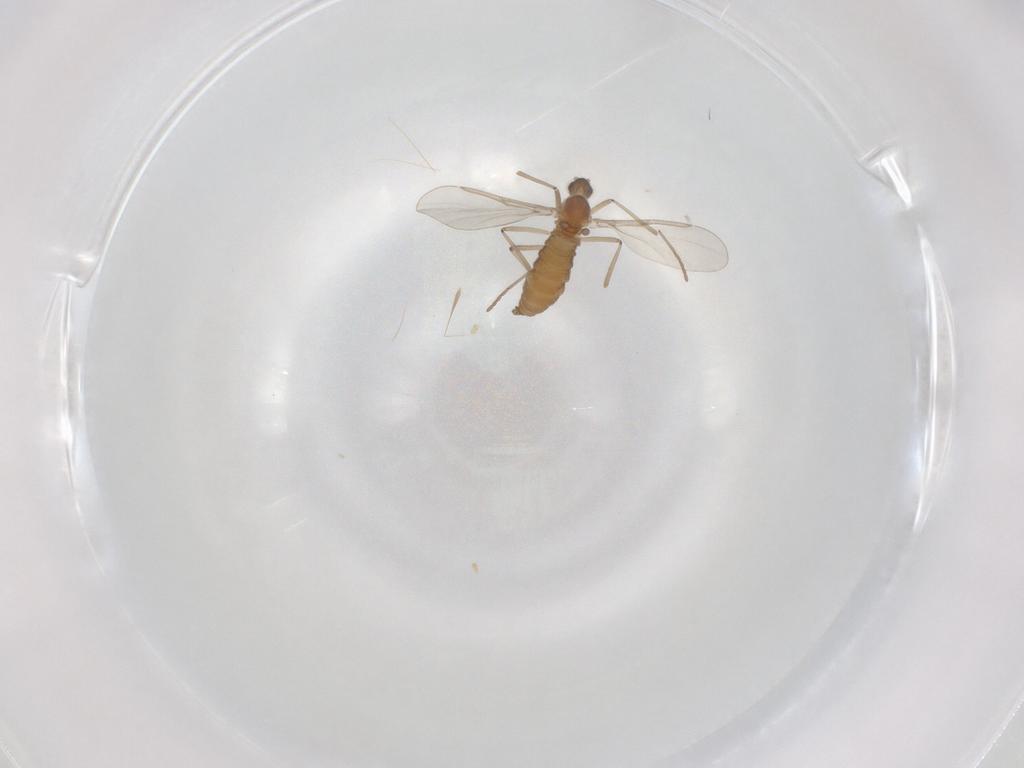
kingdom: Animalia
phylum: Arthropoda
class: Insecta
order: Diptera
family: Cecidomyiidae
